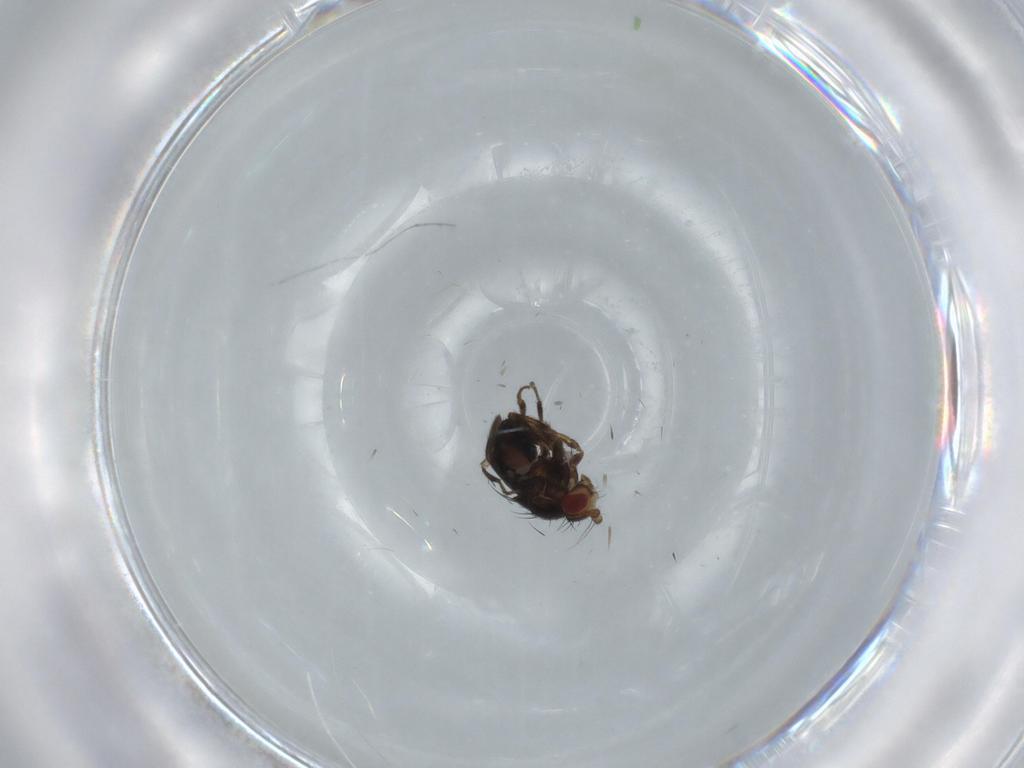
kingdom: Animalia
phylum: Arthropoda
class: Insecta
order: Diptera
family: Sphaeroceridae
